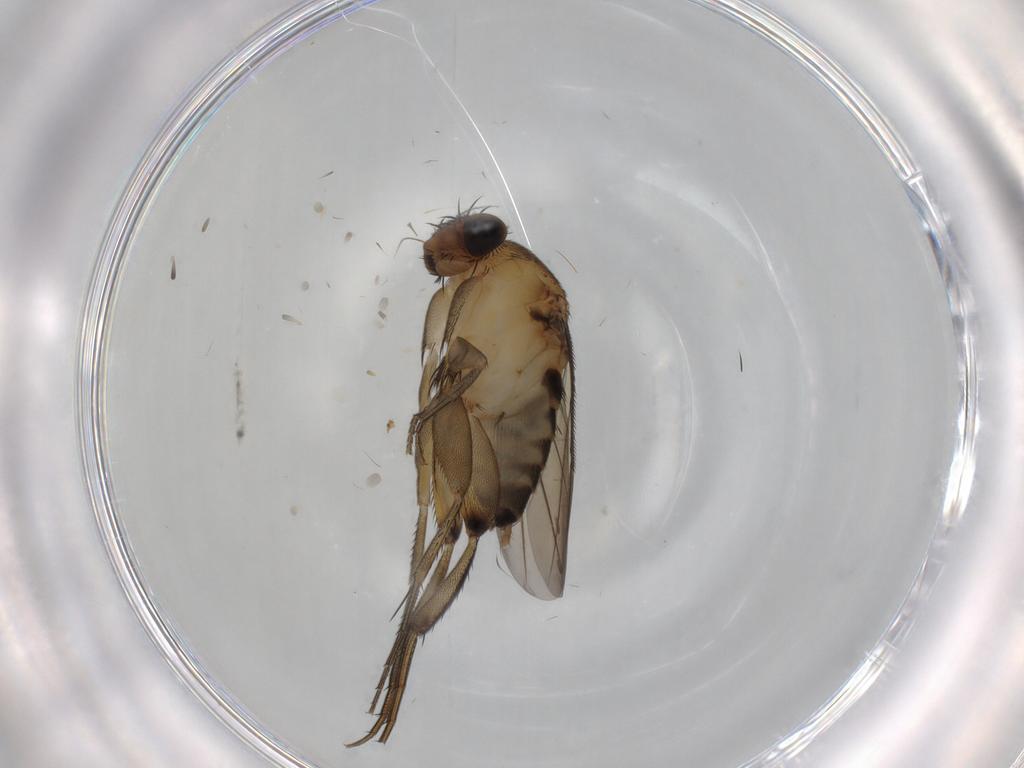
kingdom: Animalia
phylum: Arthropoda
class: Insecta
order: Diptera
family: Phoridae
